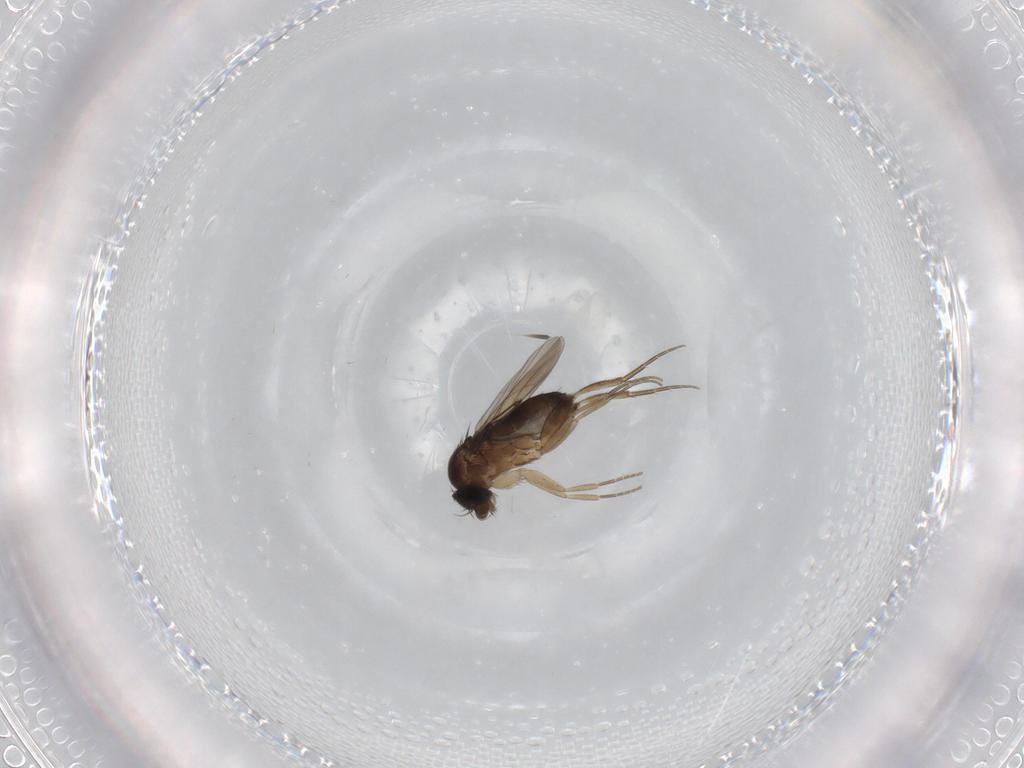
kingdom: Animalia
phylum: Arthropoda
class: Insecta
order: Diptera
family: Phoridae
